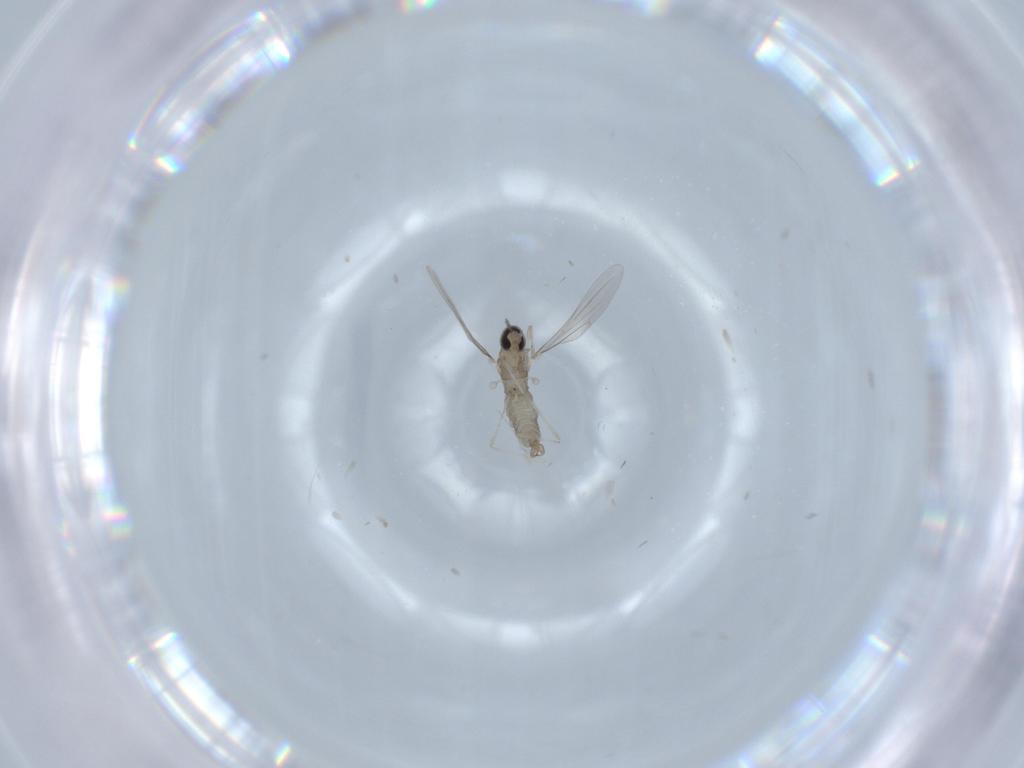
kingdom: Animalia
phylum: Arthropoda
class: Insecta
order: Diptera
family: Cecidomyiidae
